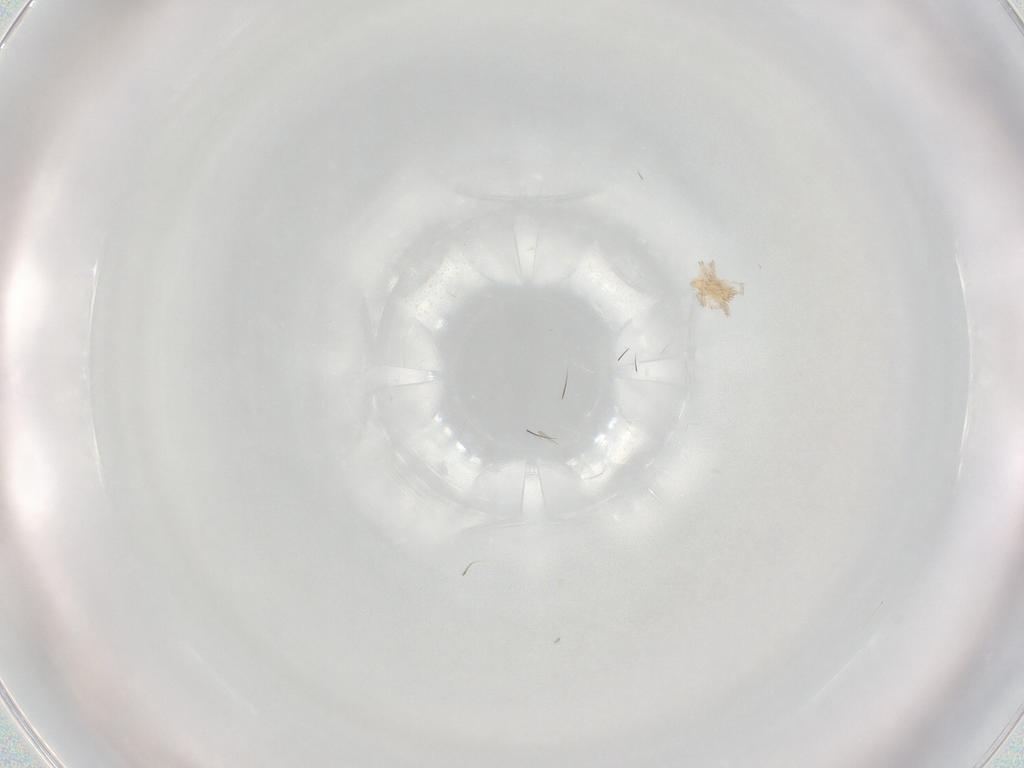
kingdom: Animalia
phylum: Arthropoda
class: Arachnida
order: Trombidiformes
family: Erythraeidae
